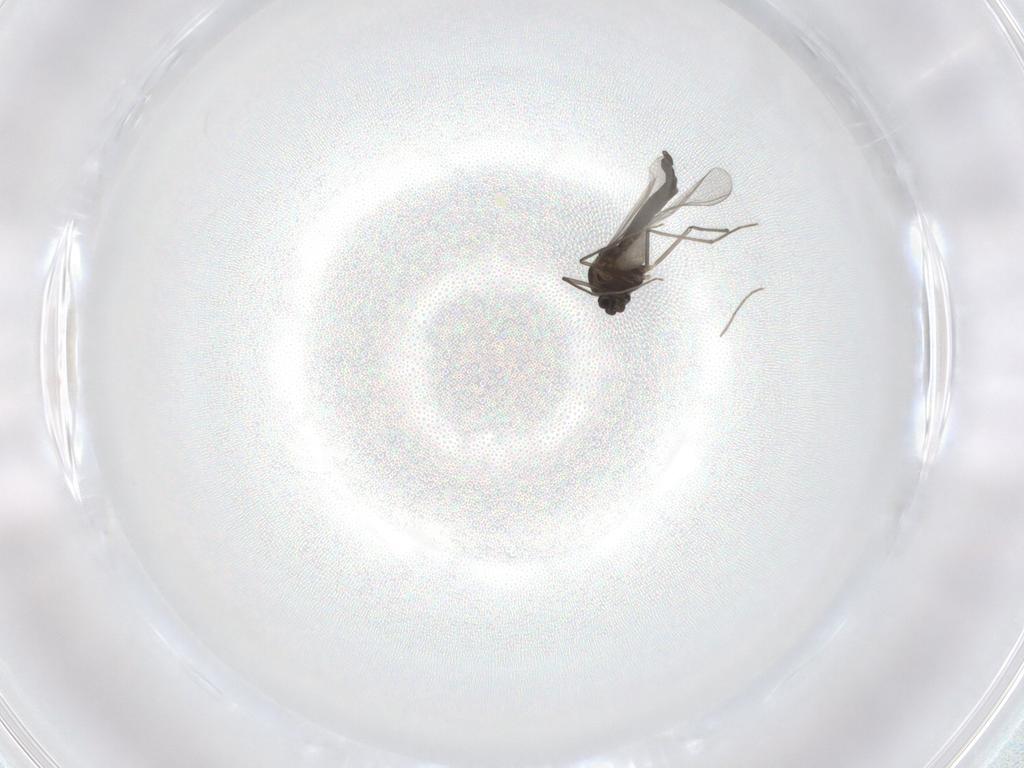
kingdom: Animalia
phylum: Arthropoda
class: Insecta
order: Diptera
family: Chironomidae
